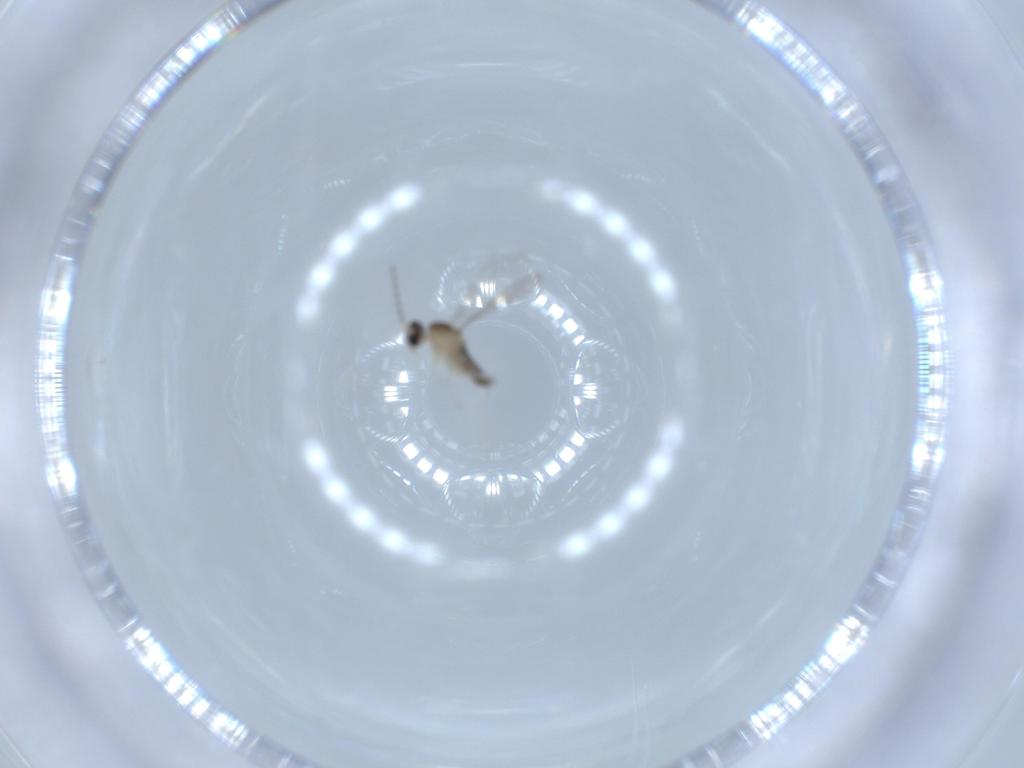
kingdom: Animalia
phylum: Arthropoda
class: Insecta
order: Diptera
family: Cecidomyiidae
